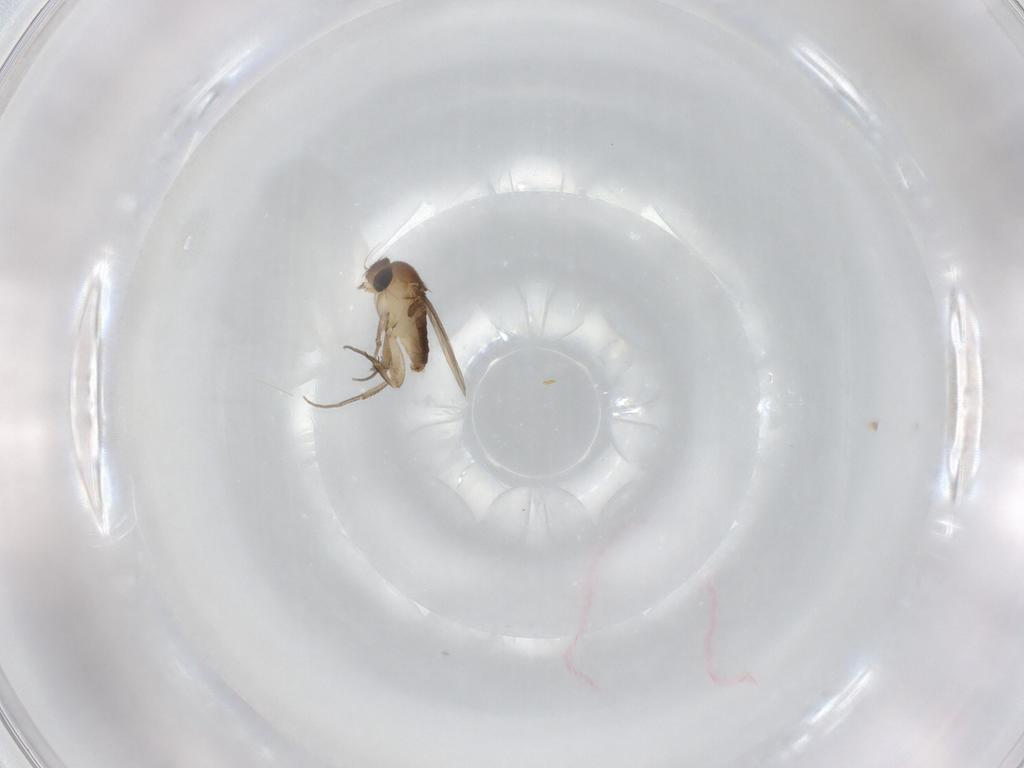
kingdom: Animalia
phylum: Arthropoda
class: Insecta
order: Diptera
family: Phoridae
